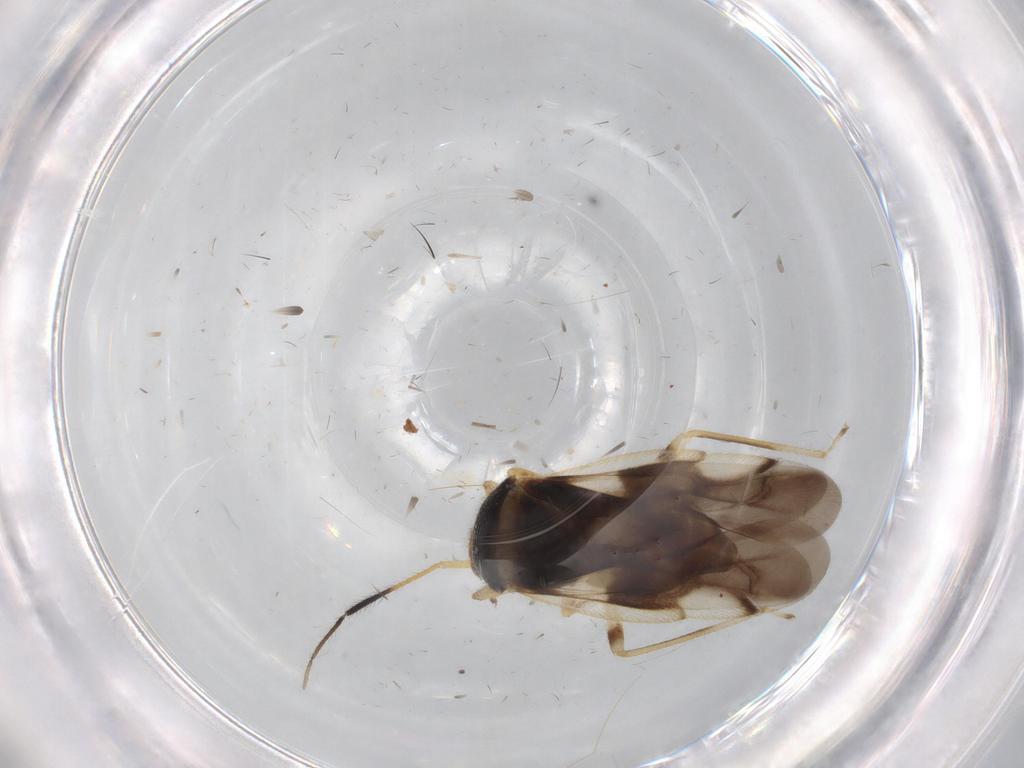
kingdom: Animalia
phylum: Arthropoda
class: Insecta
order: Hemiptera
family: Miridae
